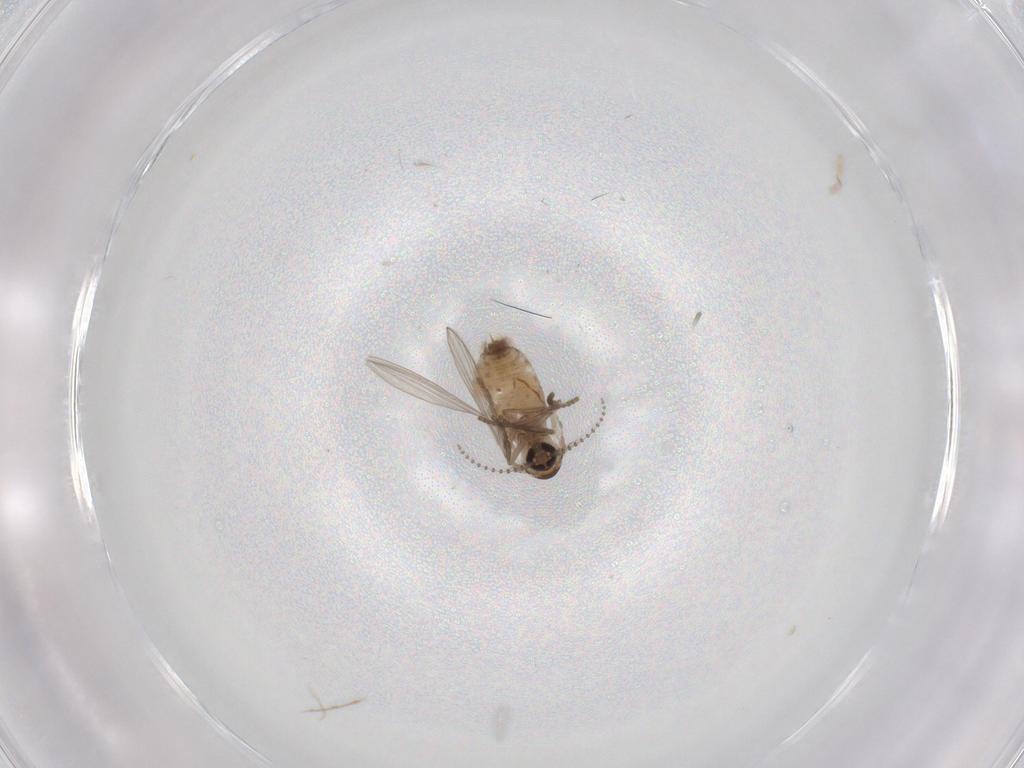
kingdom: Animalia
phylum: Arthropoda
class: Insecta
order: Diptera
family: Psychodidae
